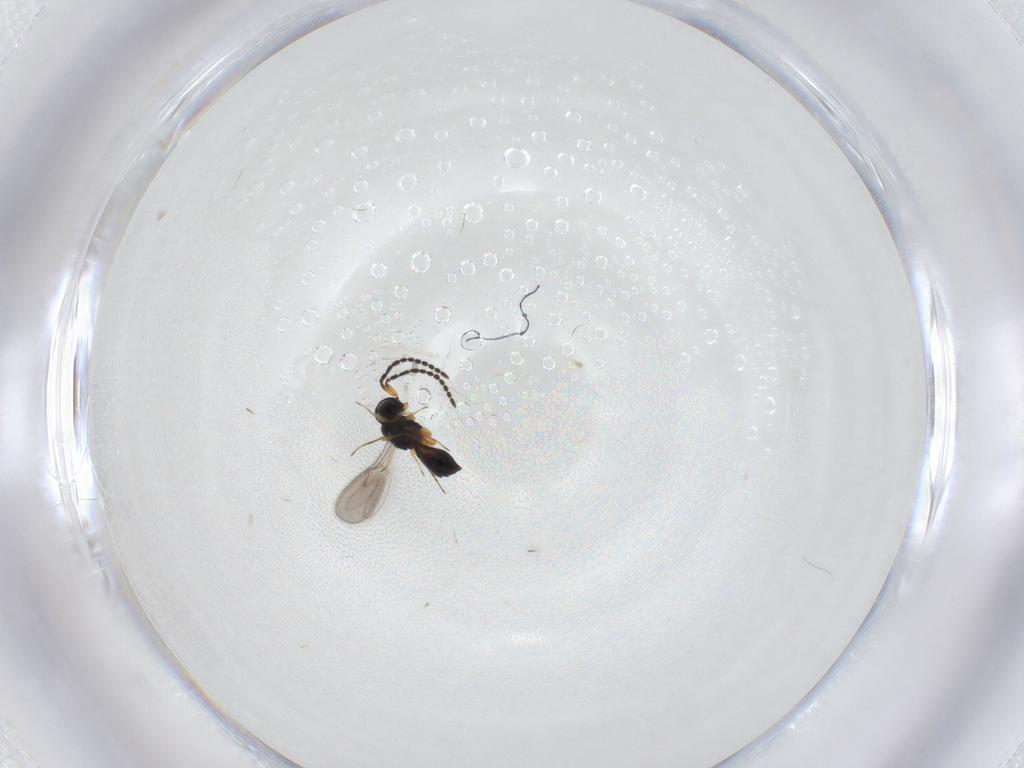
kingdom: Animalia
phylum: Arthropoda
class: Insecta
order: Hymenoptera
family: Scelionidae
